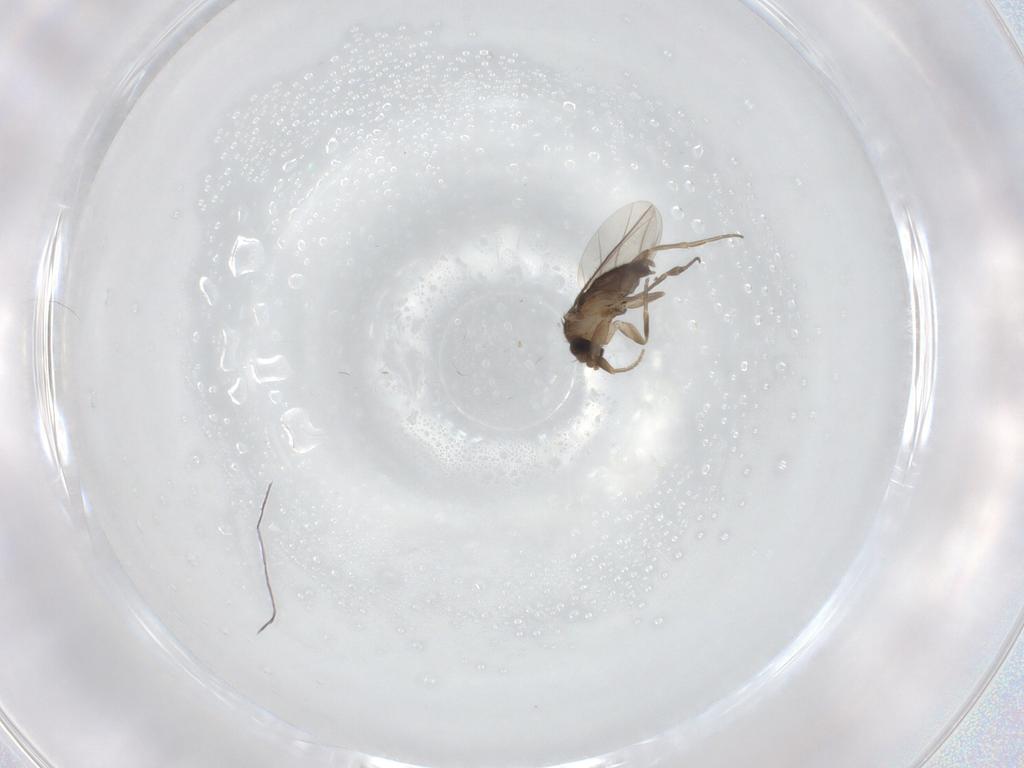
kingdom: Animalia
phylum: Arthropoda
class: Insecta
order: Diptera
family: Phoridae
